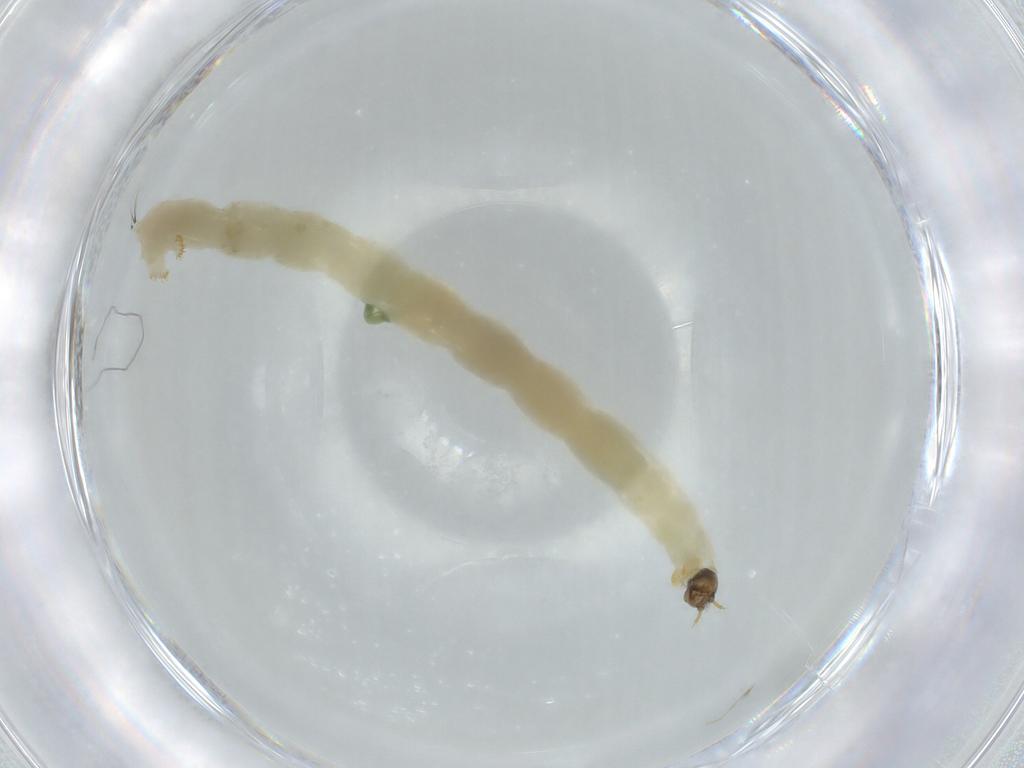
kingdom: Animalia
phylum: Arthropoda
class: Insecta
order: Diptera
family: Chironomidae
